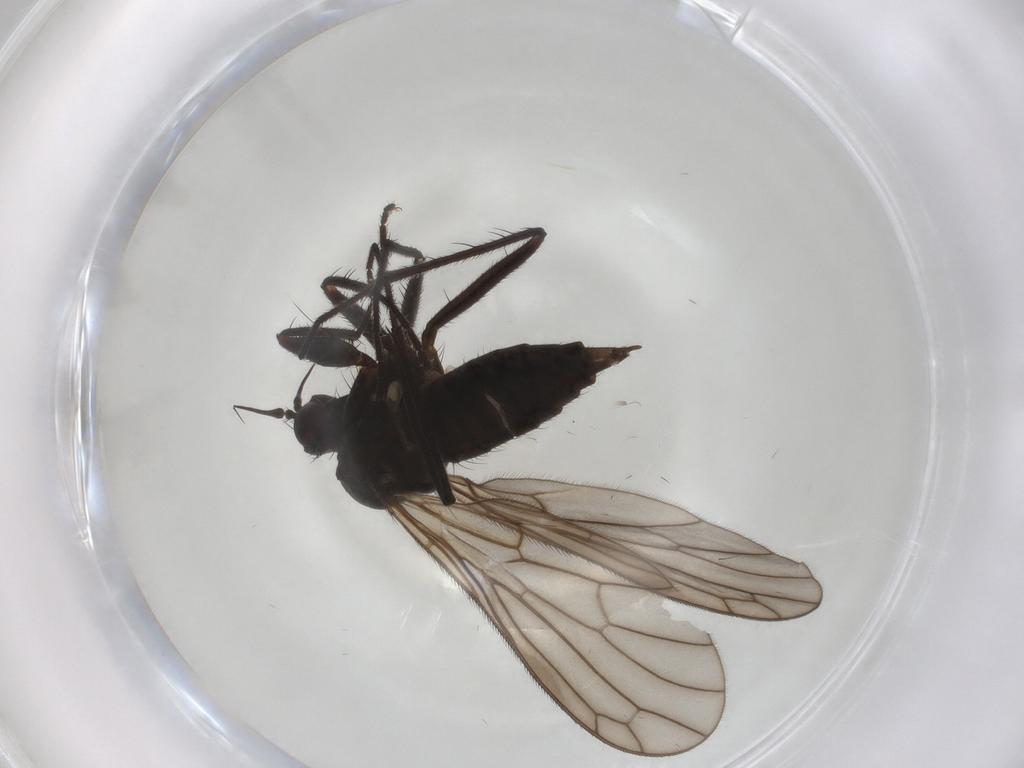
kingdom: Animalia
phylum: Arthropoda
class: Insecta
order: Diptera
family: Empididae
